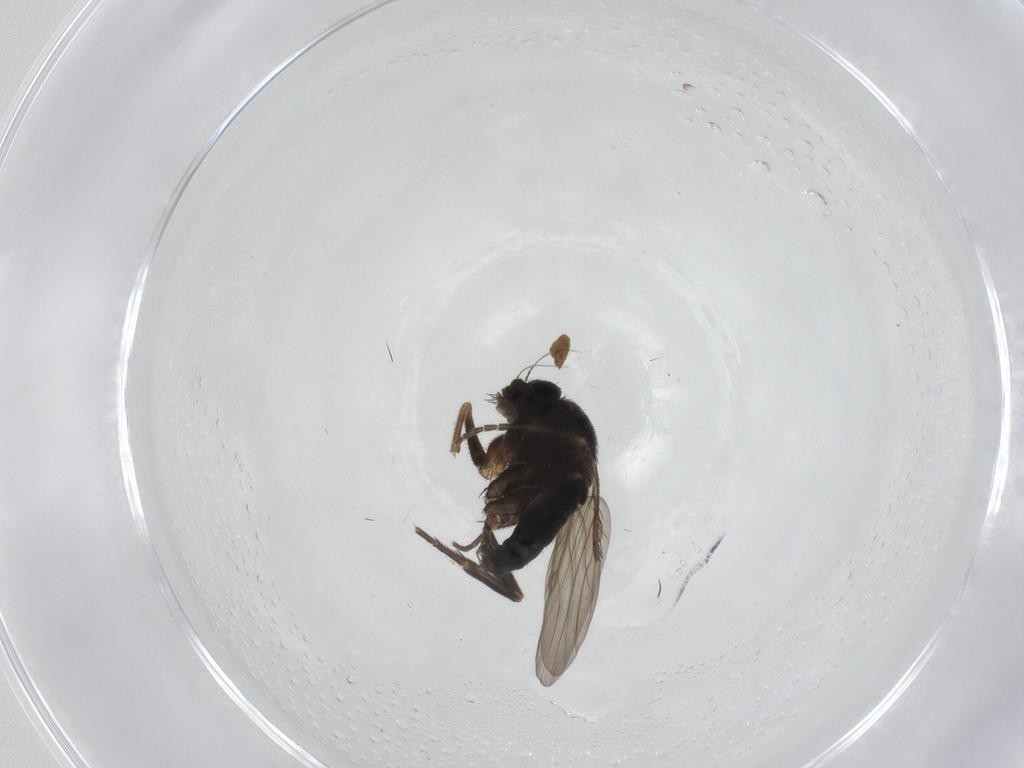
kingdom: Animalia
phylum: Arthropoda
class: Insecta
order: Diptera
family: Phoridae
